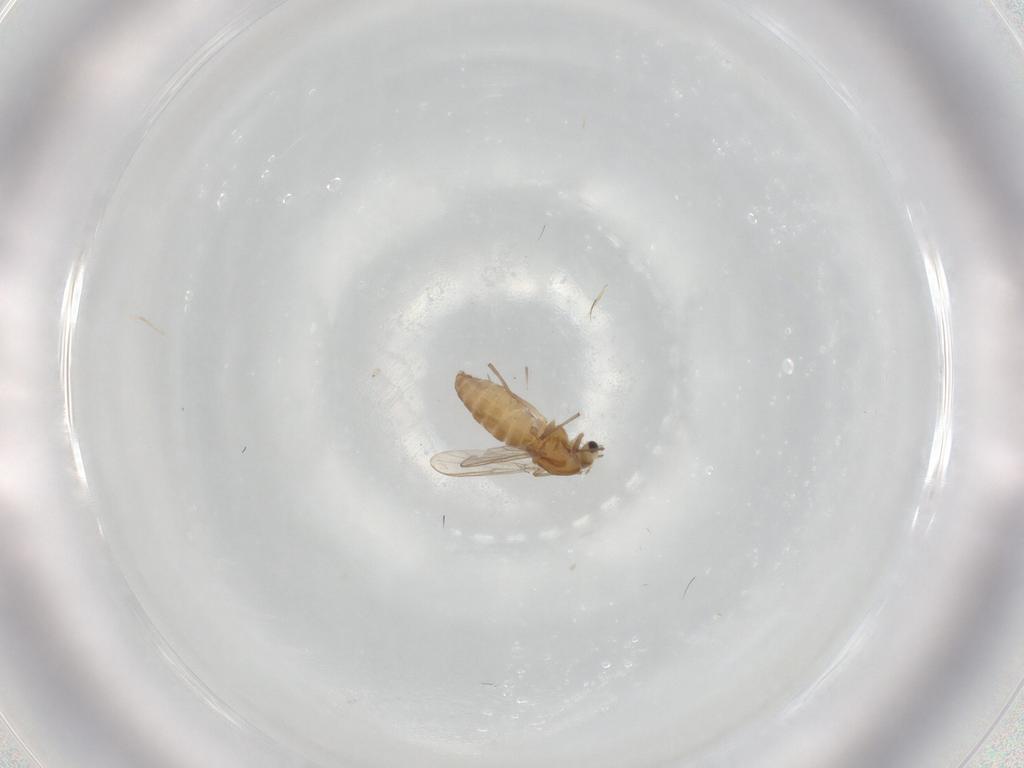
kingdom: Animalia
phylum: Arthropoda
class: Insecta
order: Diptera
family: Chironomidae
